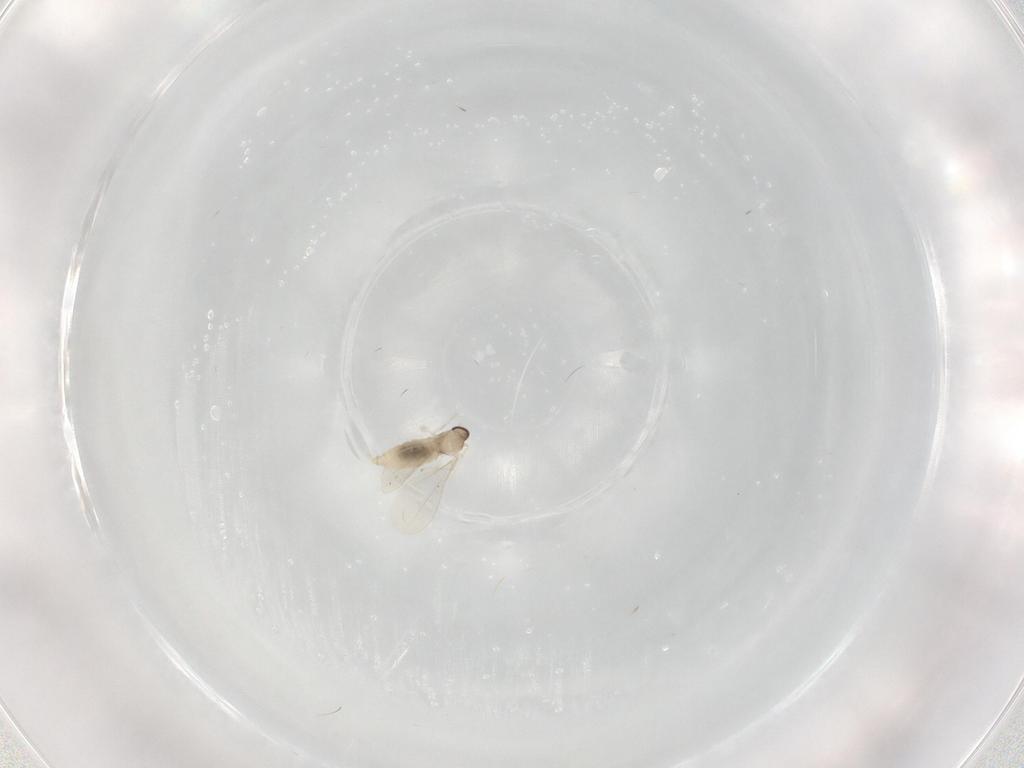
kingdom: Animalia
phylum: Arthropoda
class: Insecta
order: Diptera
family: Cecidomyiidae
